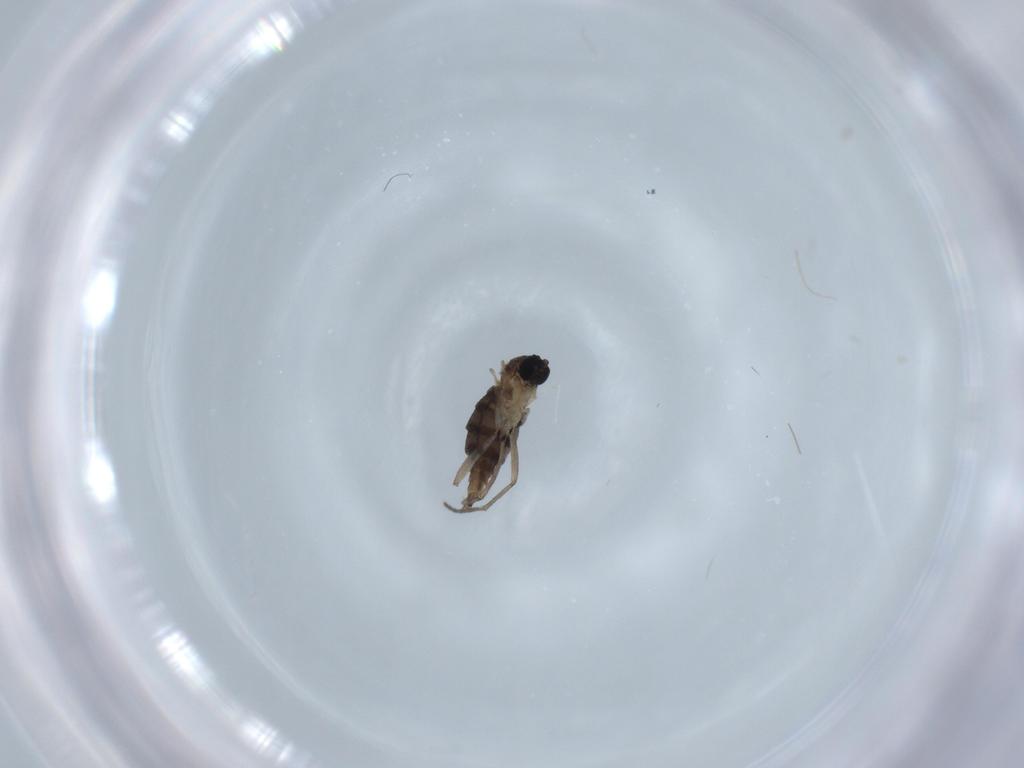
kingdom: Animalia
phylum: Arthropoda
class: Insecta
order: Diptera
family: Sciaridae
